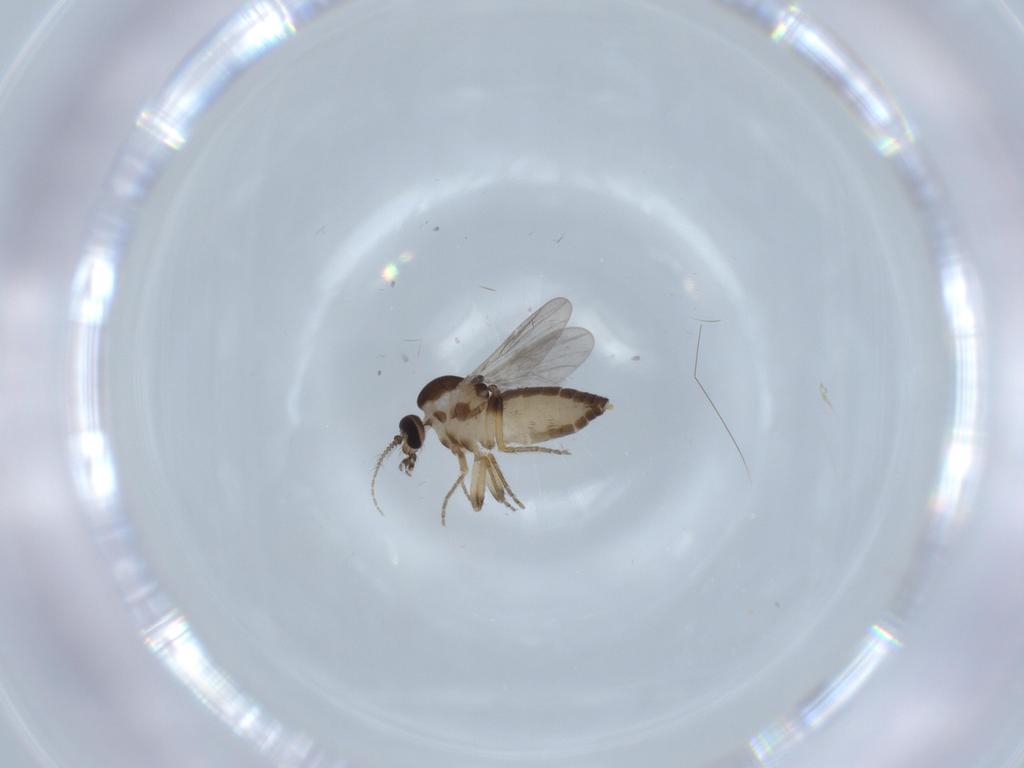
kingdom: Animalia
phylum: Arthropoda
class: Insecta
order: Diptera
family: Ceratopogonidae
